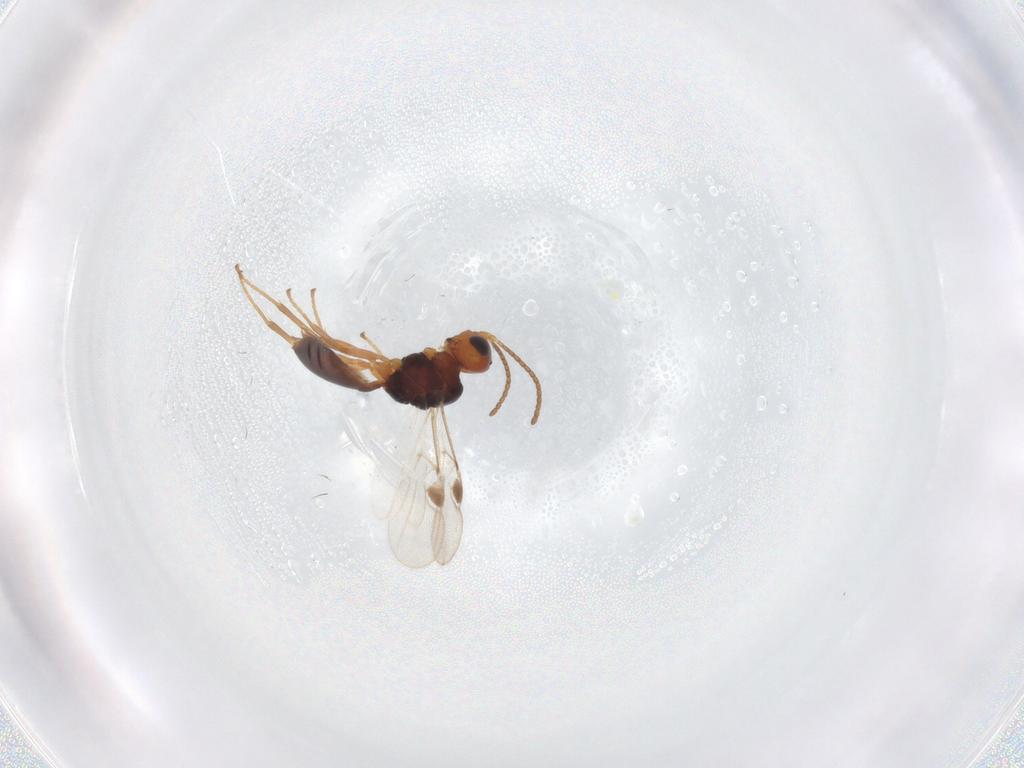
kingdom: Animalia
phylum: Arthropoda
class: Insecta
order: Hymenoptera
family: Braconidae
